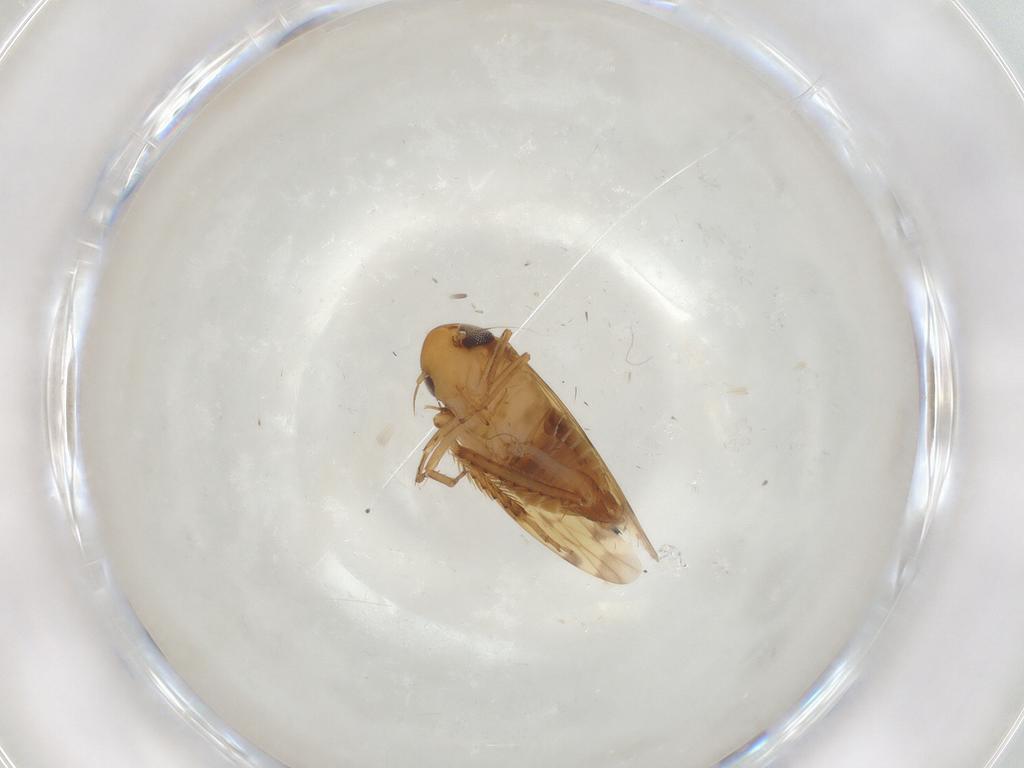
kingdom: Animalia
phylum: Arthropoda
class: Insecta
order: Hemiptera
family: Cicadellidae
